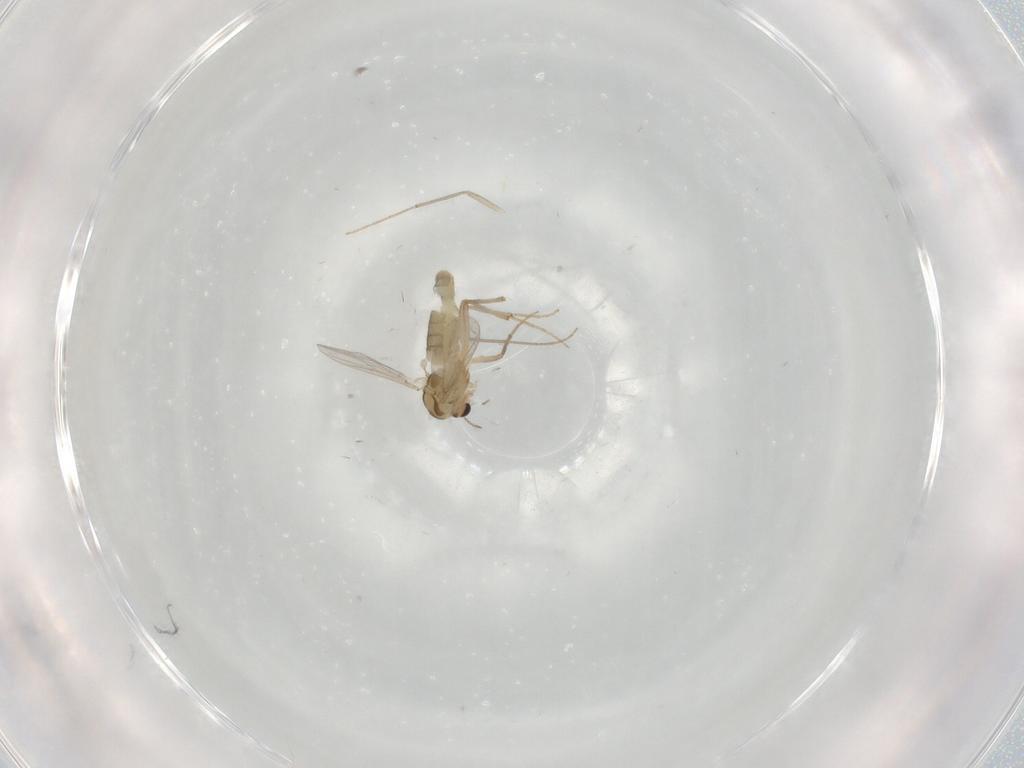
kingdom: Animalia
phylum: Arthropoda
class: Insecta
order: Diptera
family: Chironomidae
